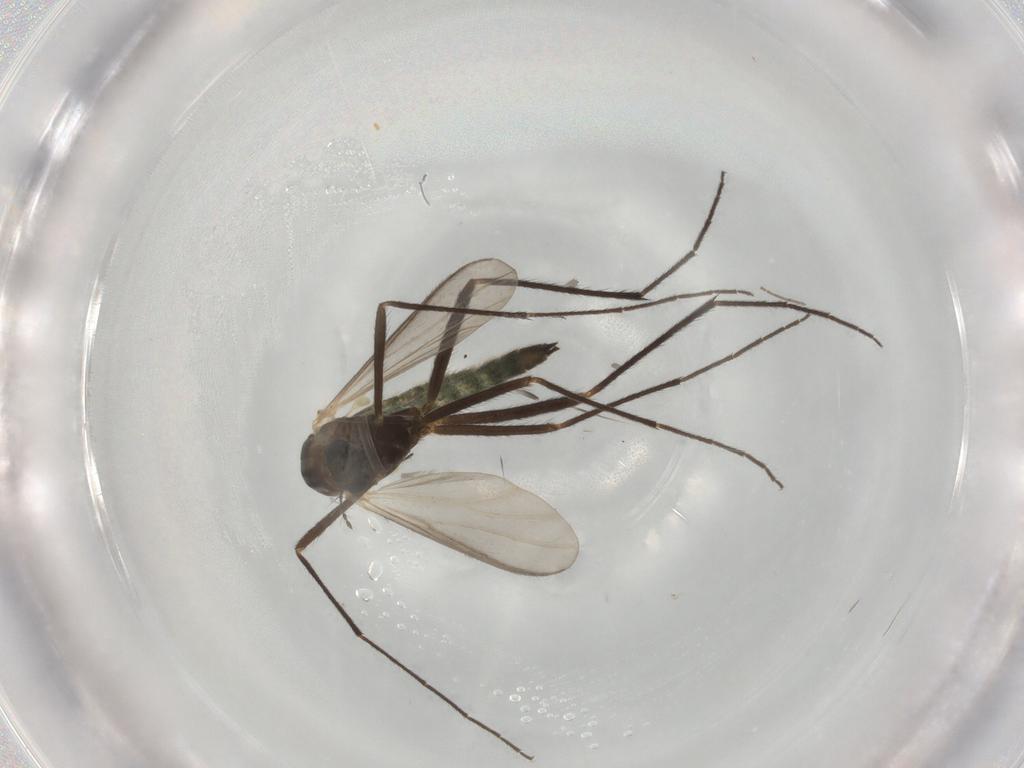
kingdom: Animalia
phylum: Arthropoda
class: Insecta
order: Diptera
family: Chironomidae
